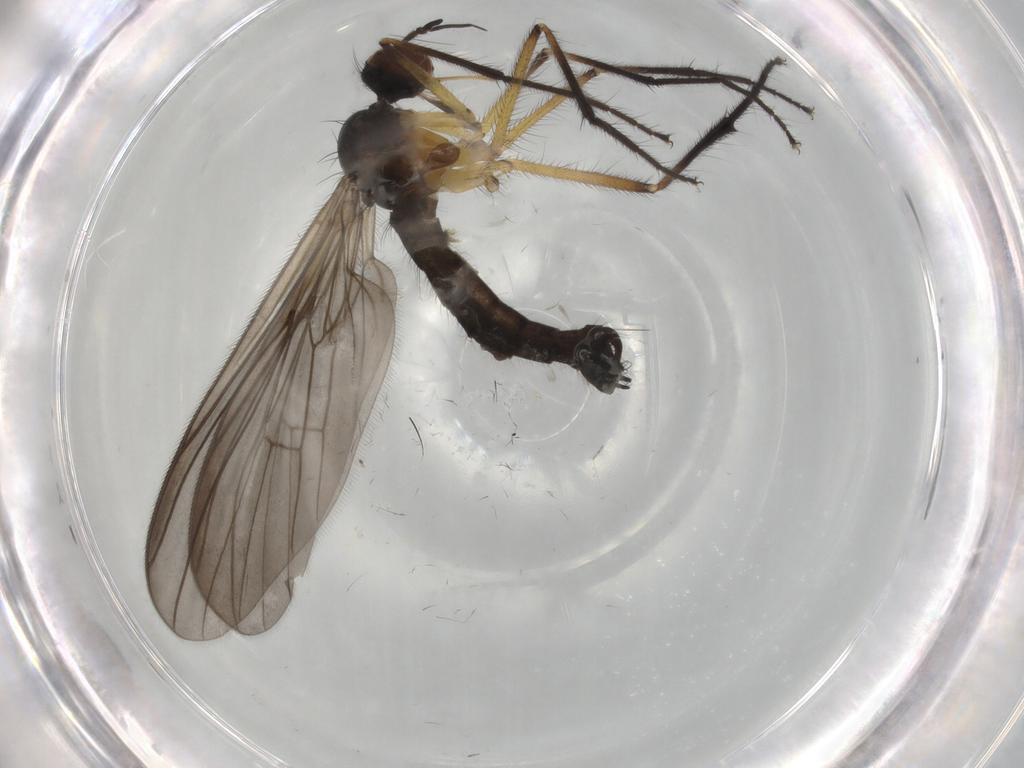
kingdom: Animalia
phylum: Arthropoda
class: Insecta
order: Diptera
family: Empididae
